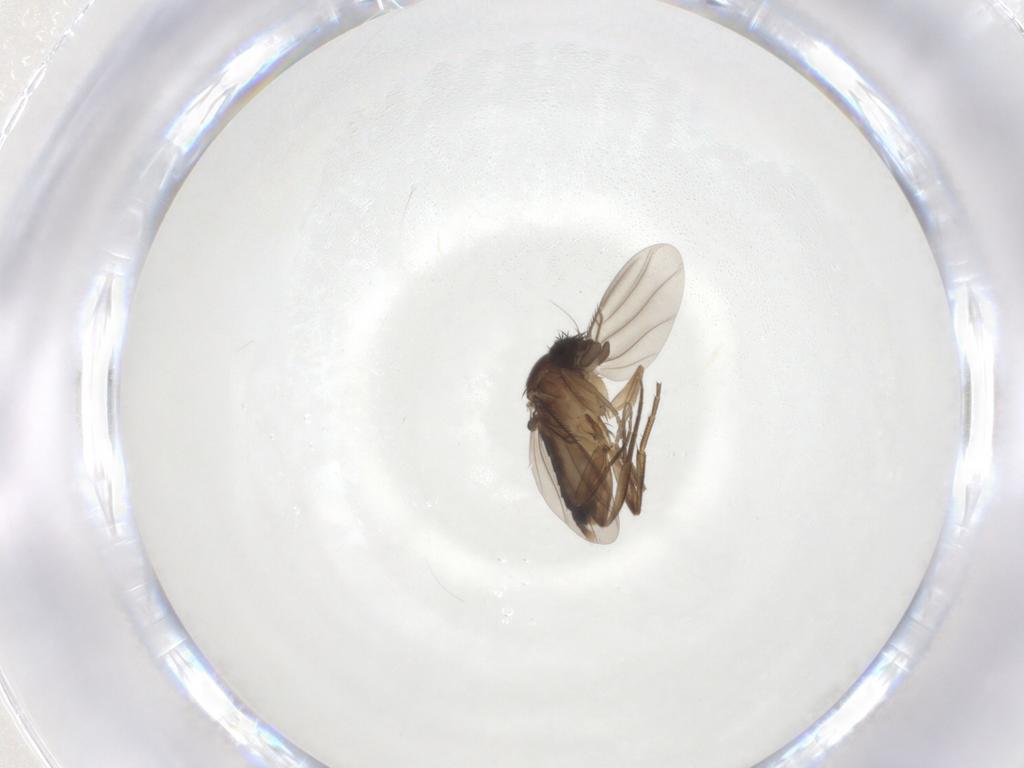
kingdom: Animalia
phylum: Arthropoda
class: Insecta
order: Diptera
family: Phoridae
